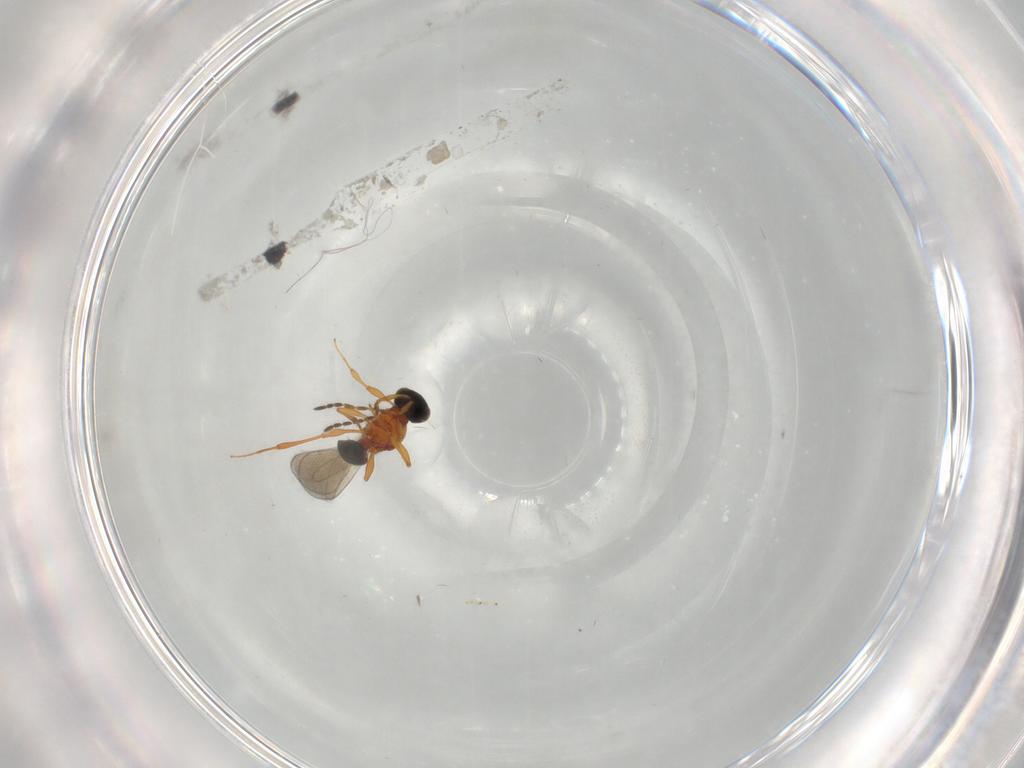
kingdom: Animalia
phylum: Arthropoda
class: Insecta
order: Hymenoptera
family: Platygastridae
